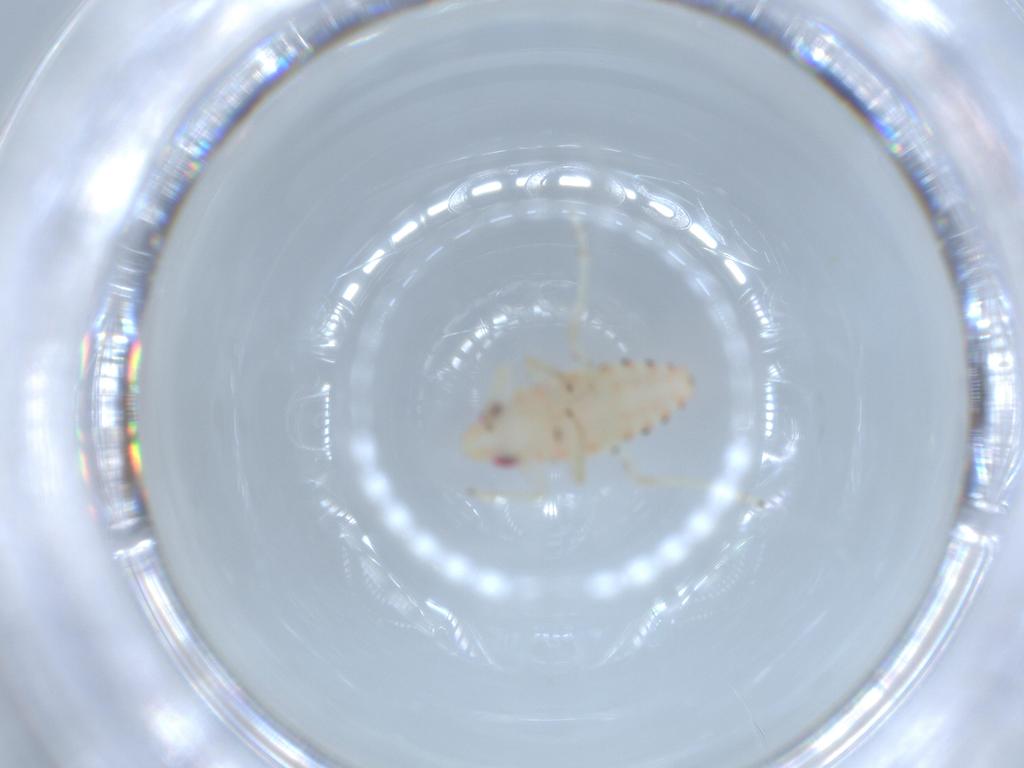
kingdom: Animalia
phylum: Arthropoda
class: Insecta
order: Hemiptera
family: Tropiduchidae
